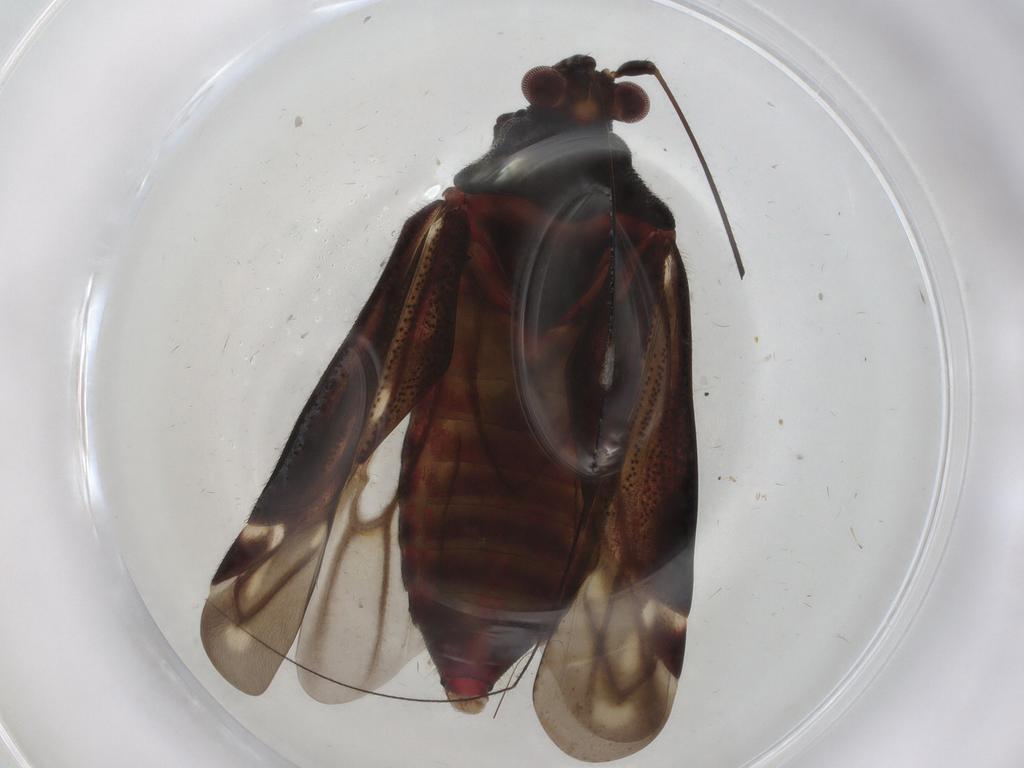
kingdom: Animalia
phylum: Arthropoda
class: Insecta
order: Hemiptera
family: Miridae
